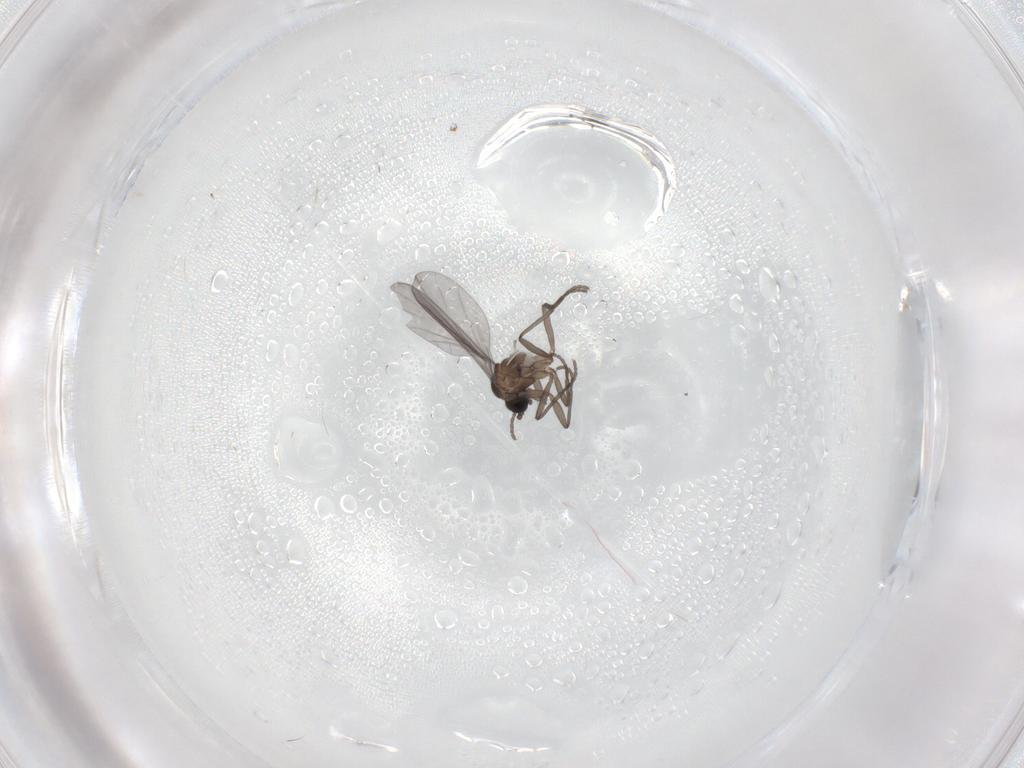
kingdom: Animalia
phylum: Arthropoda
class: Insecta
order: Diptera
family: Sciaridae
